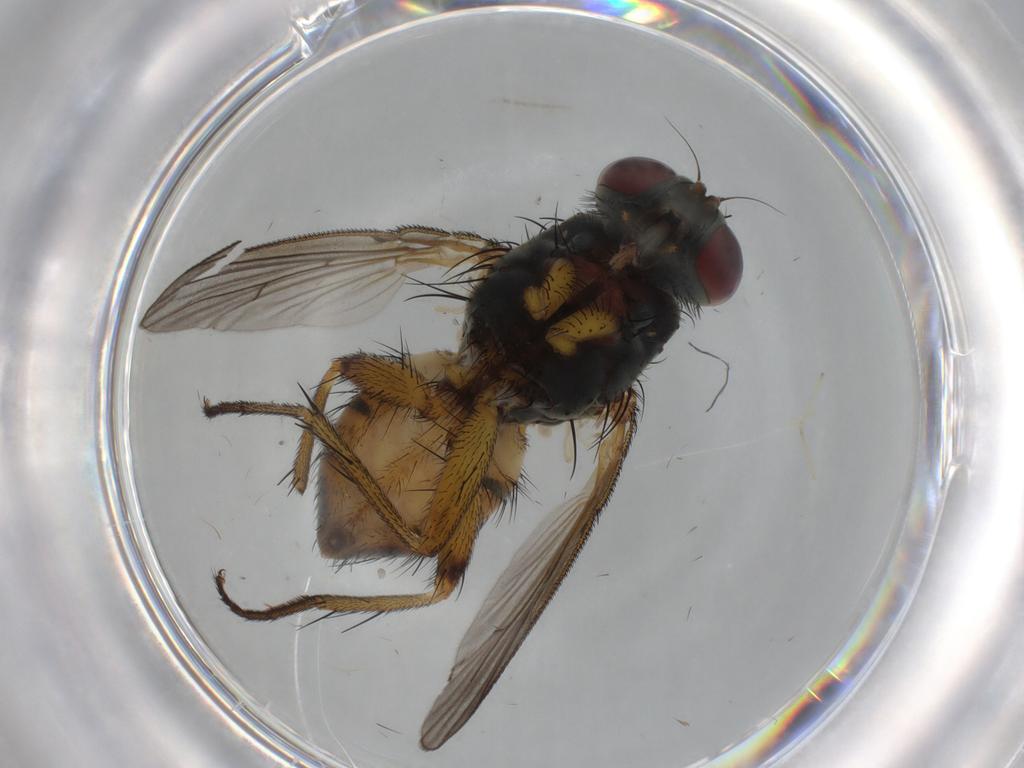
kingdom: Animalia
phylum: Arthropoda
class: Insecta
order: Diptera
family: Muscidae
